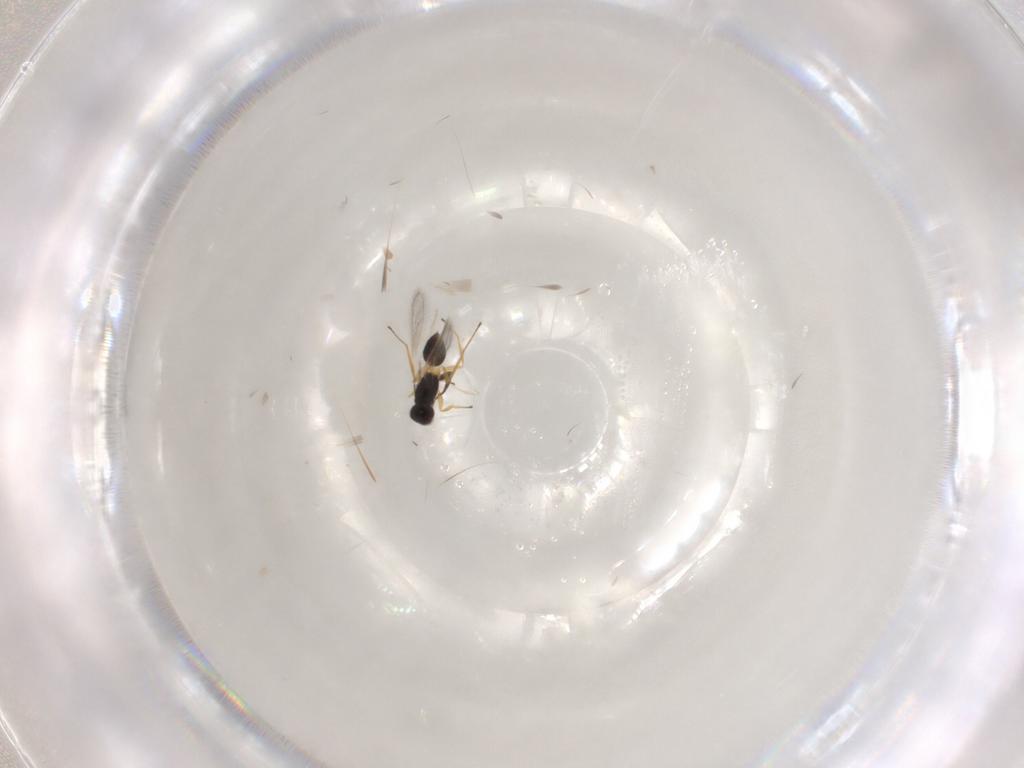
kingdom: Animalia
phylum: Arthropoda
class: Insecta
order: Hymenoptera
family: Mymaridae
